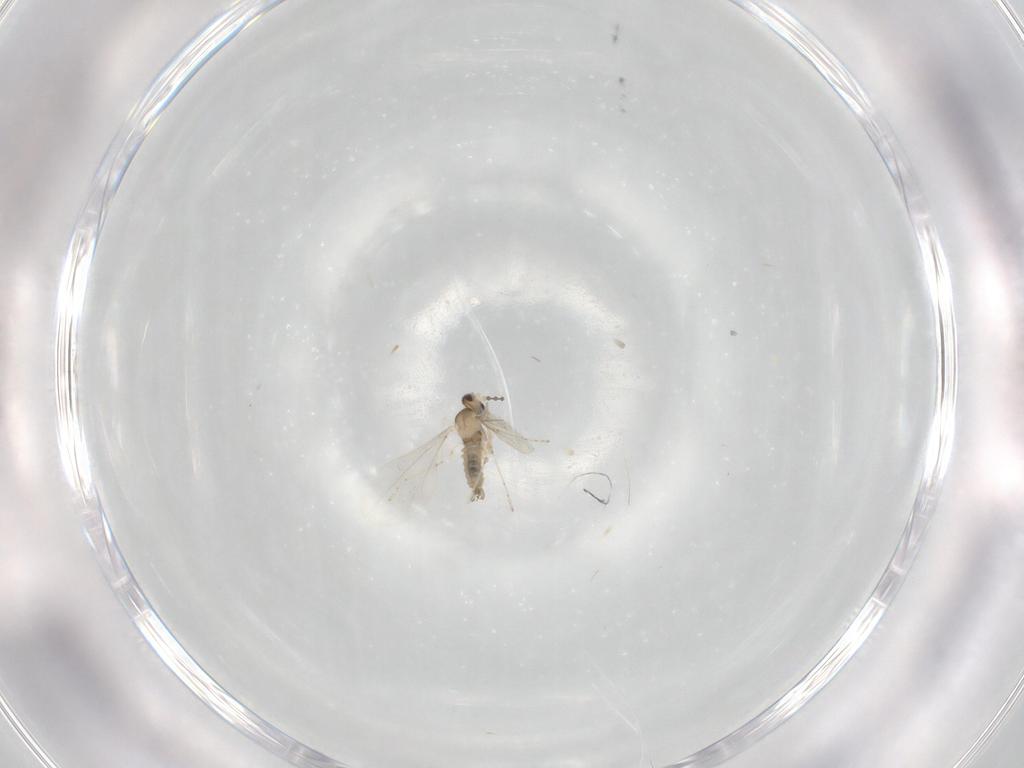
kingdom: Animalia
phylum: Arthropoda
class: Insecta
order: Diptera
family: Cecidomyiidae
